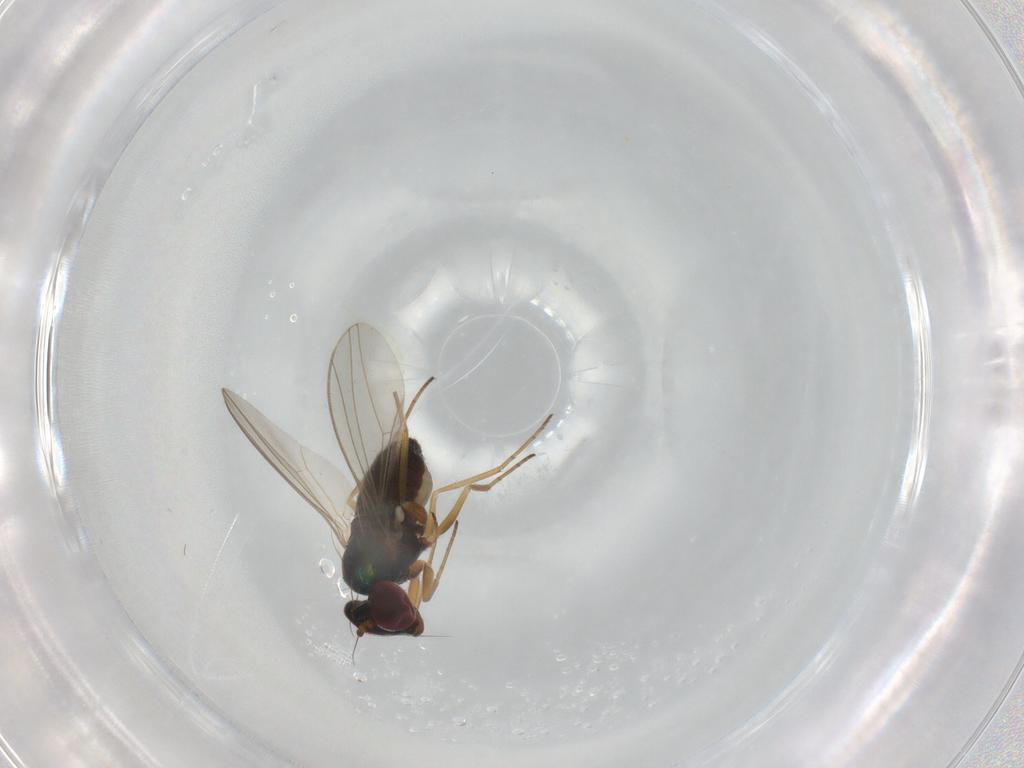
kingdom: Animalia
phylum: Arthropoda
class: Insecta
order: Diptera
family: Dolichopodidae
